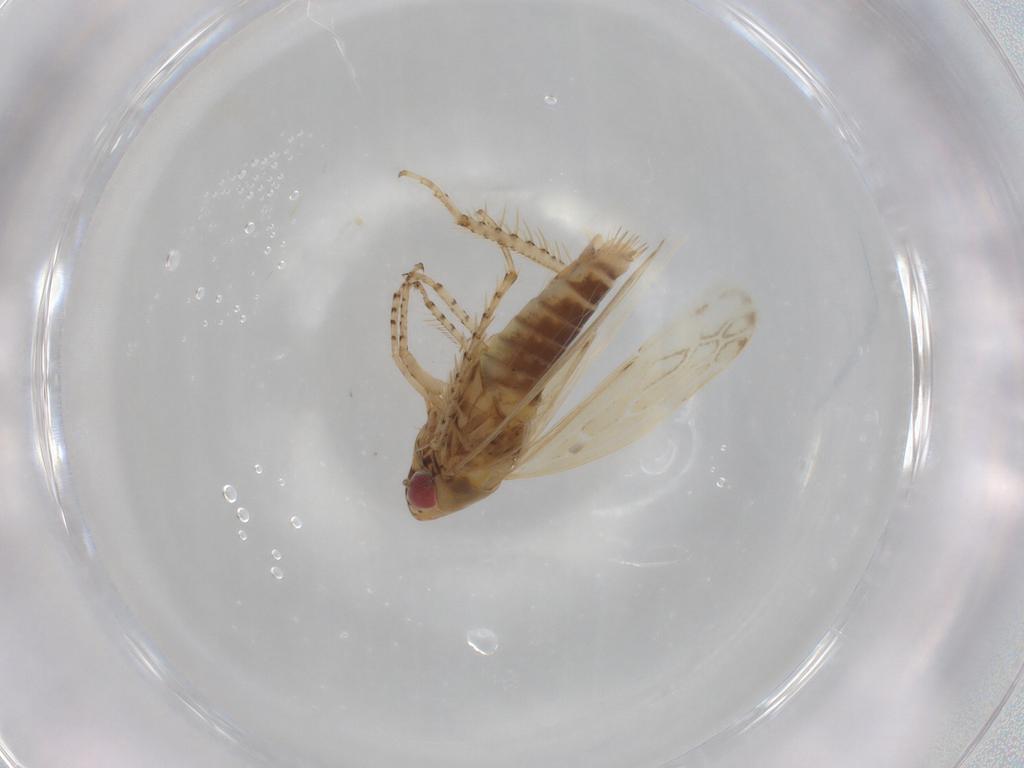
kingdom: Animalia
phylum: Arthropoda
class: Insecta
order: Hemiptera
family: Cicadellidae
